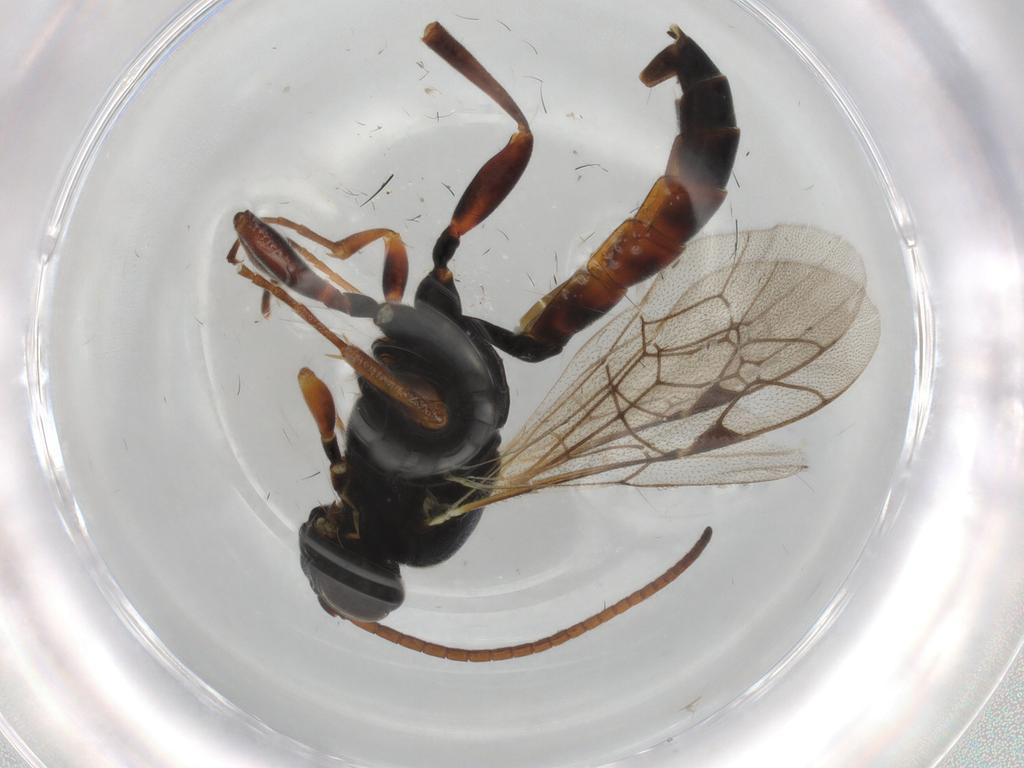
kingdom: Animalia
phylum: Arthropoda
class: Insecta
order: Hymenoptera
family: Ichneumonidae
